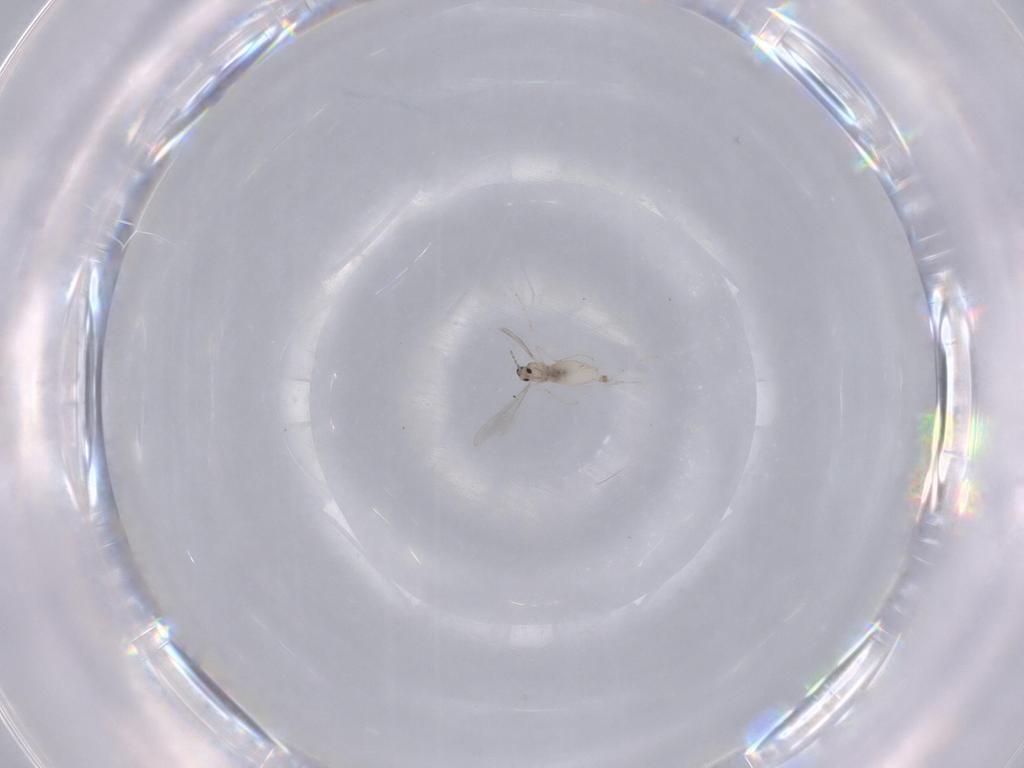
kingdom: Animalia
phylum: Arthropoda
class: Insecta
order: Diptera
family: Cecidomyiidae
